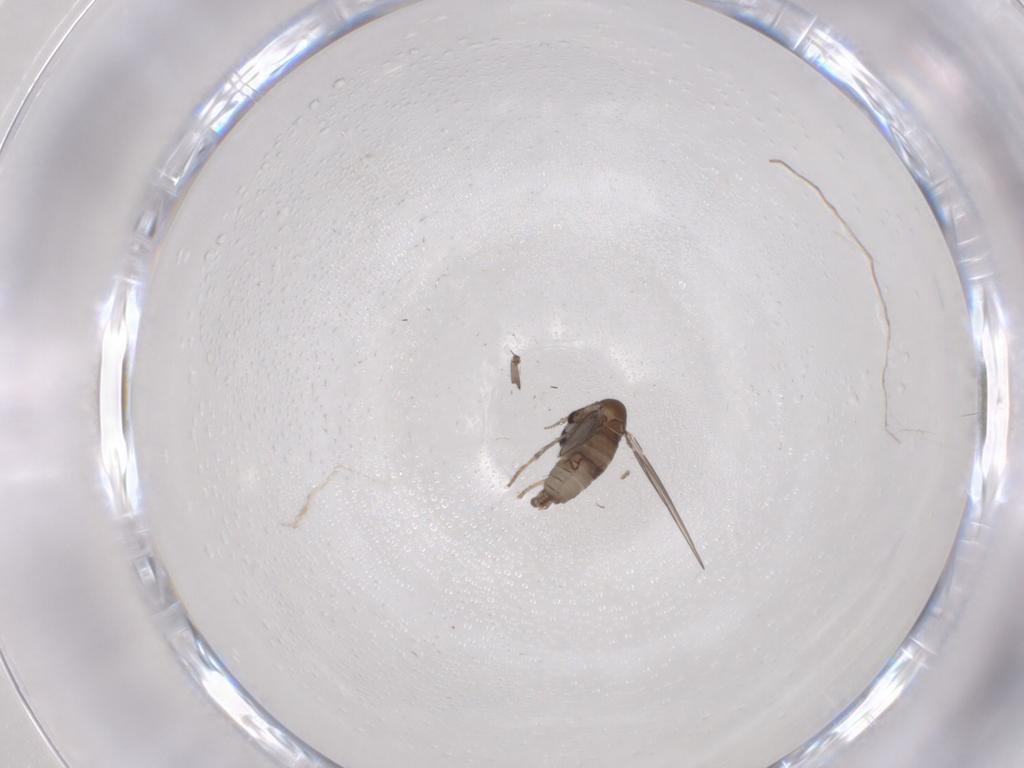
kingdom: Animalia
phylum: Arthropoda
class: Insecta
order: Diptera
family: Psychodidae
